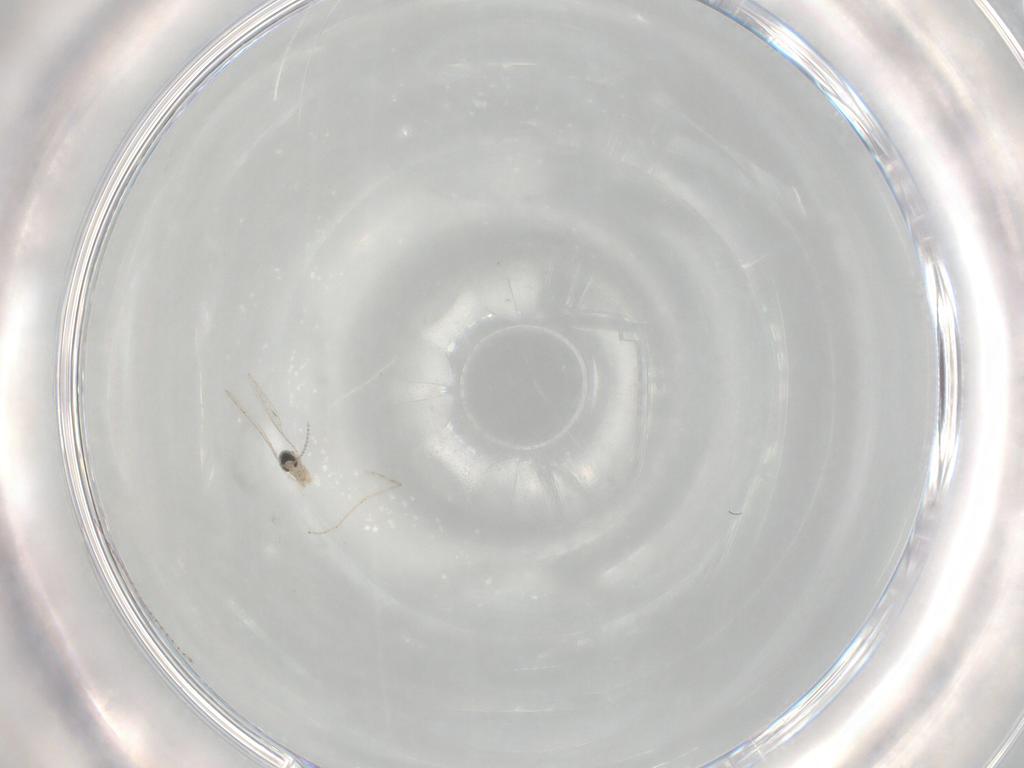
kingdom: Animalia
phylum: Arthropoda
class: Insecta
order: Diptera
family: Cecidomyiidae
